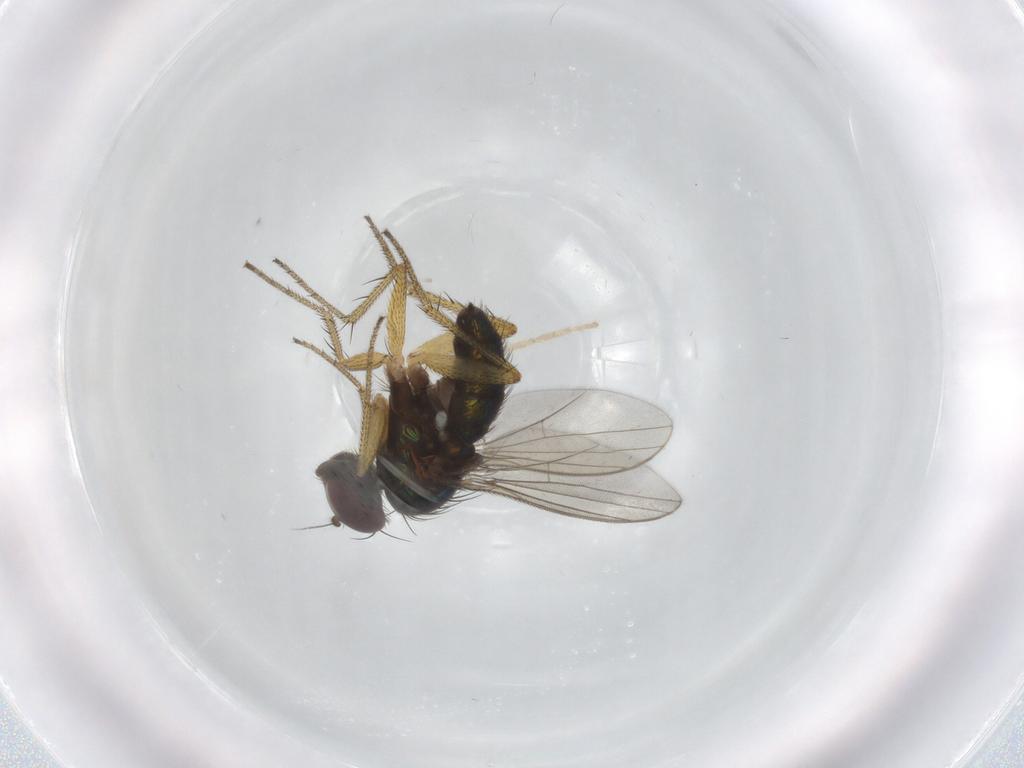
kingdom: Animalia
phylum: Arthropoda
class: Insecta
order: Diptera
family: Dolichopodidae
